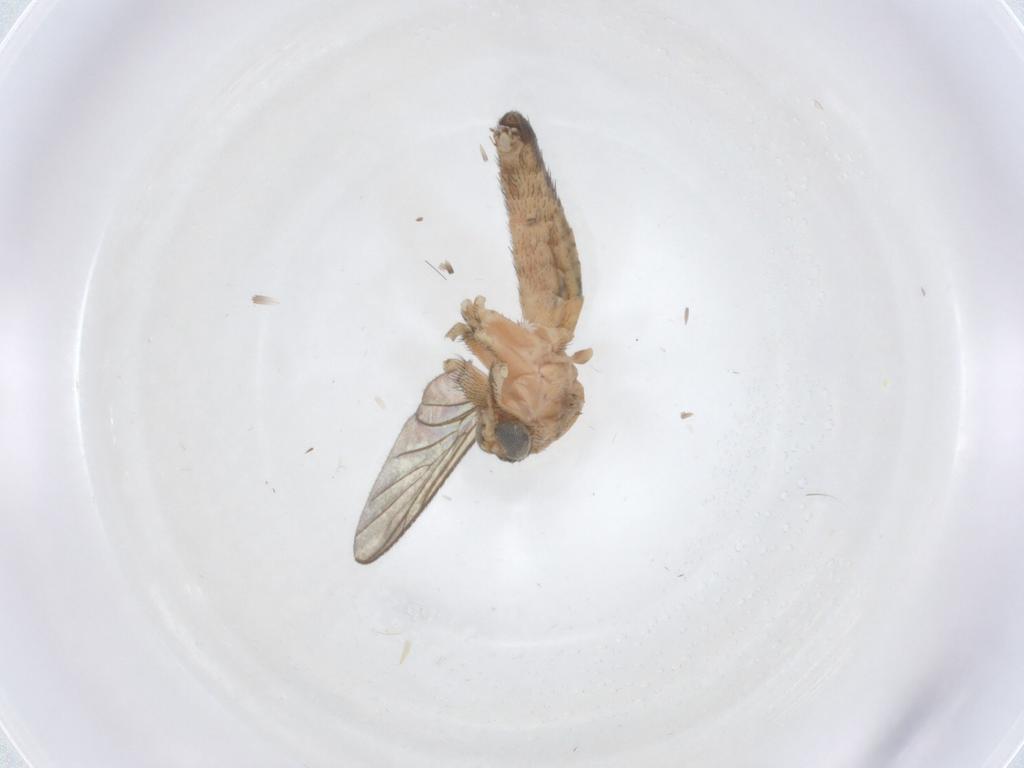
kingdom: Animalia
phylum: Arthropoda
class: Insecta
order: Diptera
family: Keroplatidae
